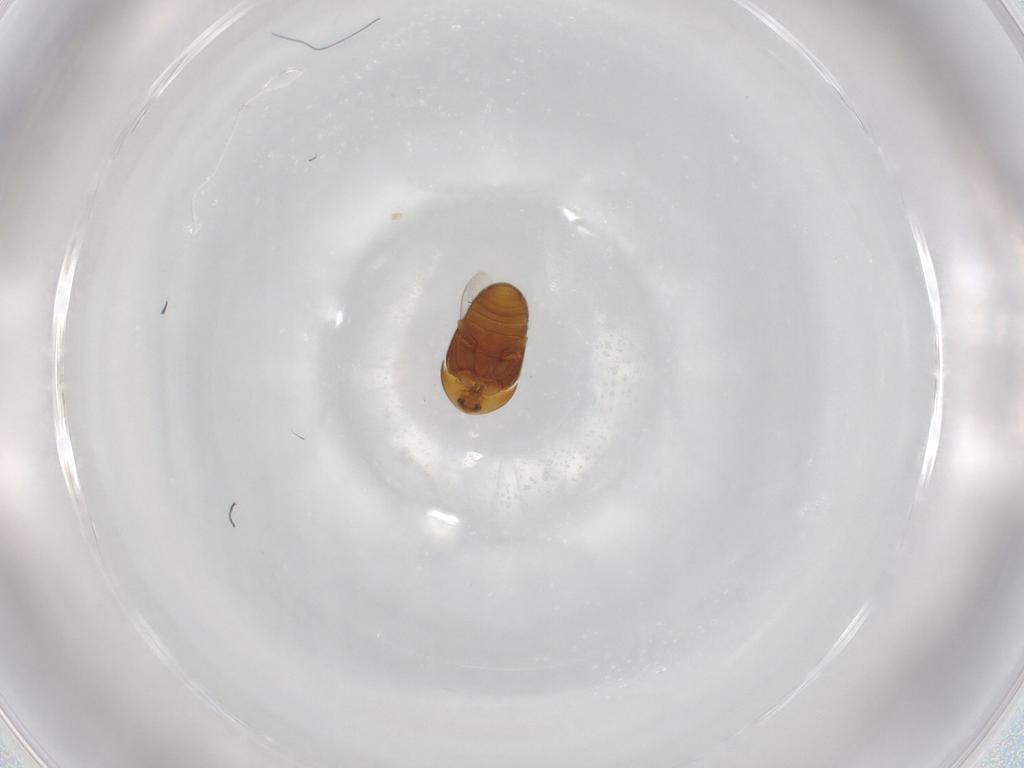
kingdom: Animalia
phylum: Arthropoda
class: Insecta
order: Coleoptera
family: Corylophidae
